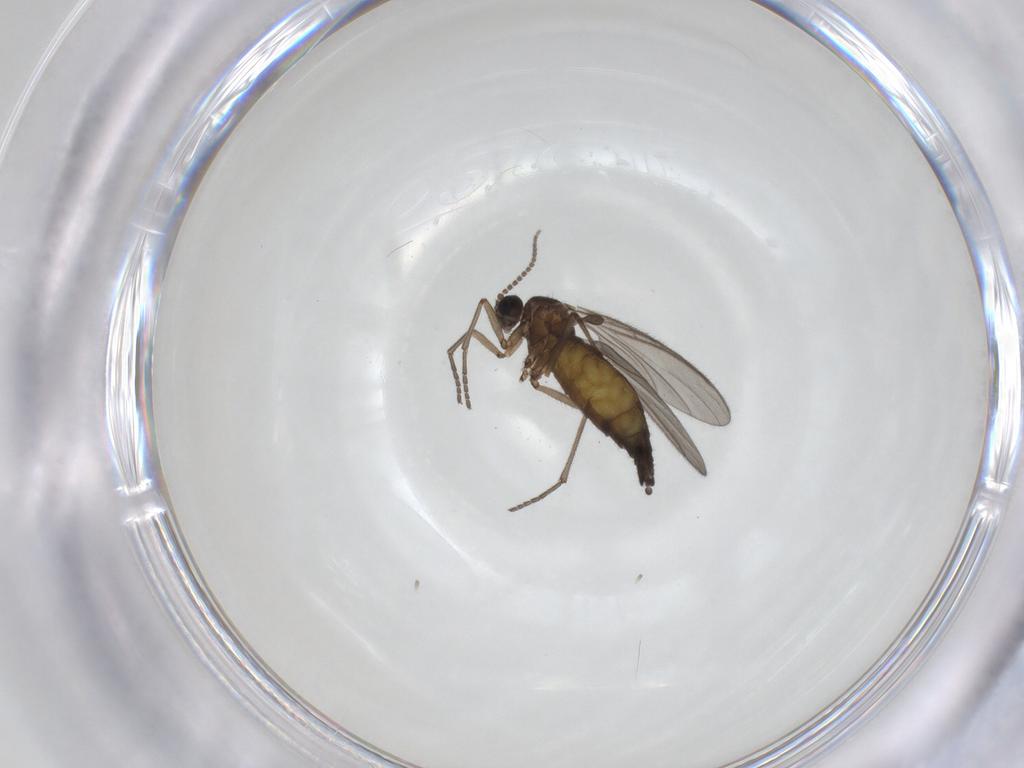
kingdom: Animalia
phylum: Arthropoda
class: Insecta
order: Diptera
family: Sciaridae
